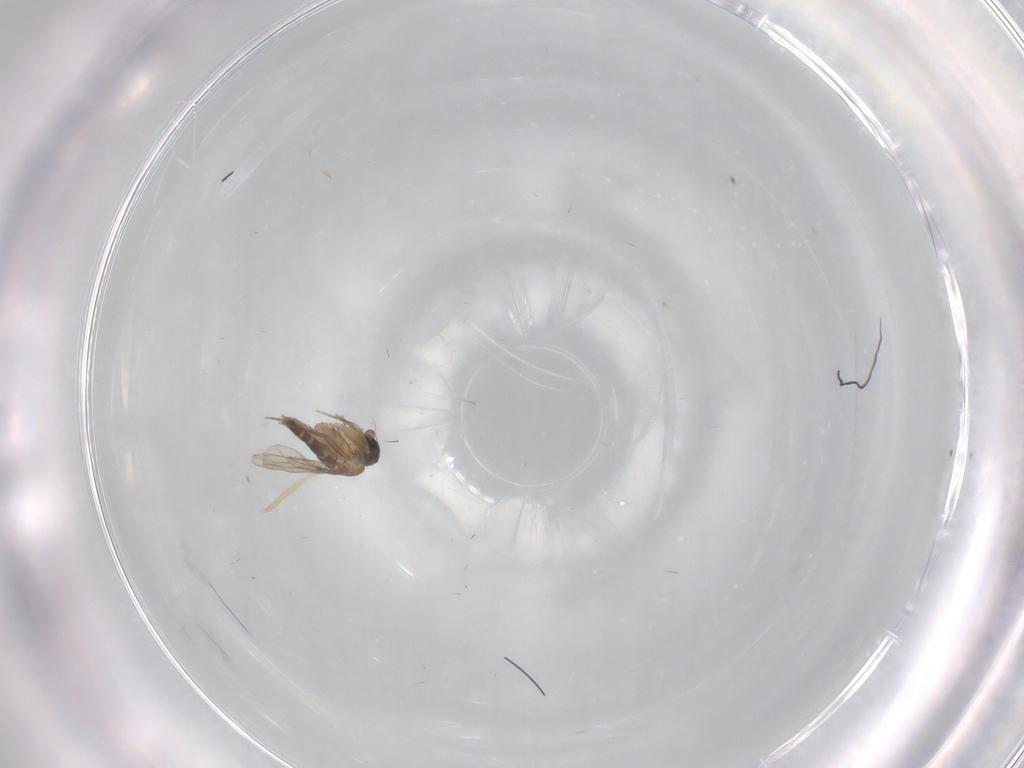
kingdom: Animalia
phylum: Arthropoda
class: Insecta
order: Diptera
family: Phoridae
